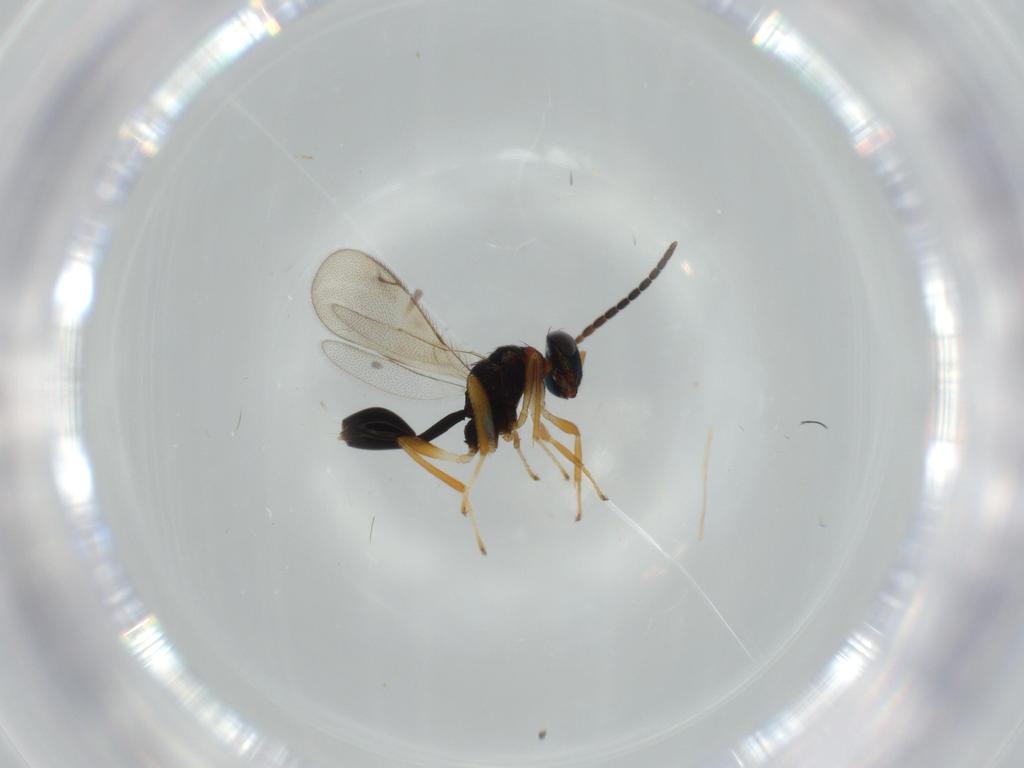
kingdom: Animalia
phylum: Arthropoda
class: Insecta
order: Hymenoptera
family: Diparidae
